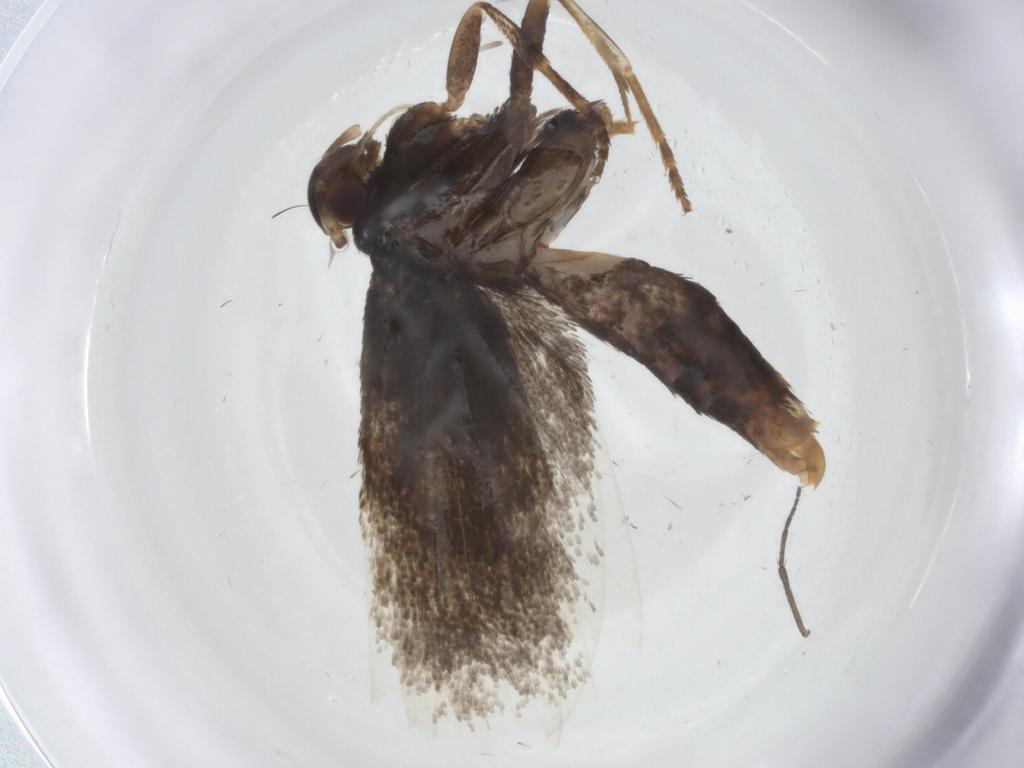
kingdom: Animalia
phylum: Arthropoda
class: Insecta
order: Lepidoptera
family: Lecithoceridae
